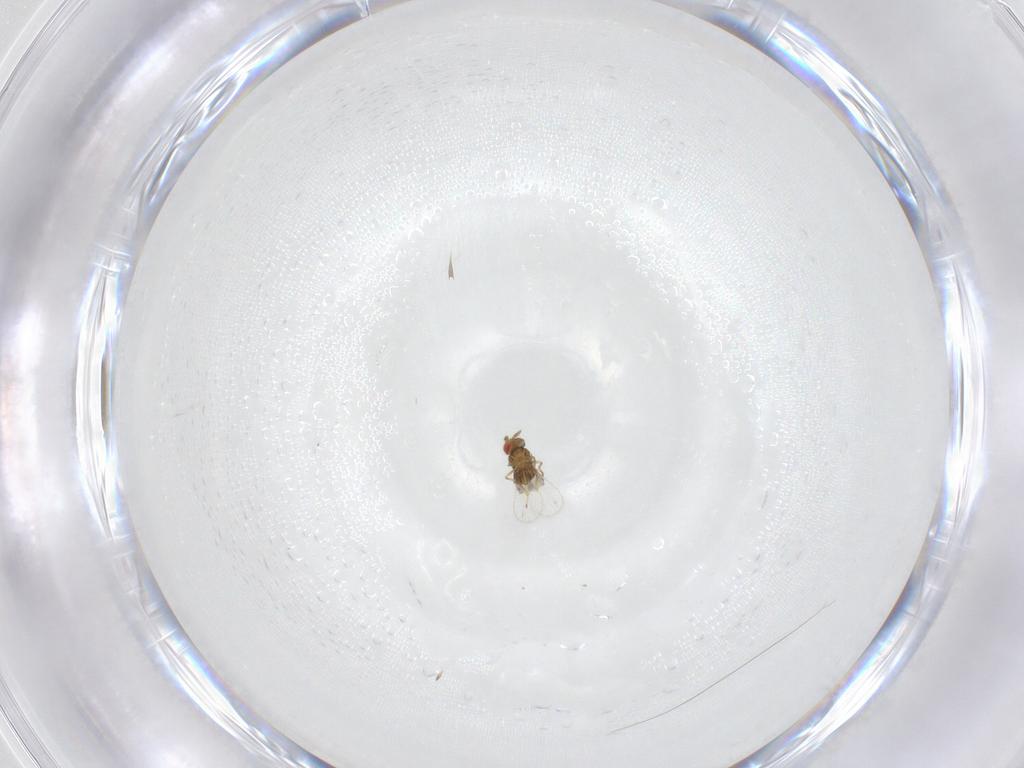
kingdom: Animalia
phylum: Arthropoda
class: Insecta
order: Hymenoptera
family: Trichogrammatidae
